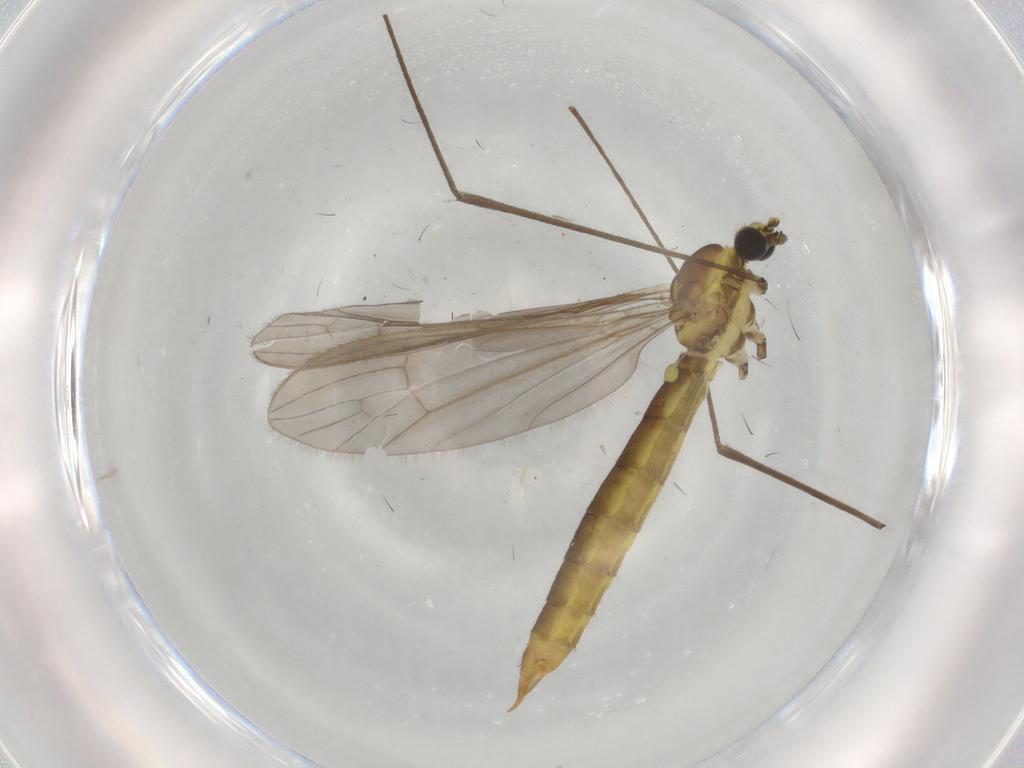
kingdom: Animalia
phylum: Arthropoda
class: Insecta
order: Diptera
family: Limoniidae
